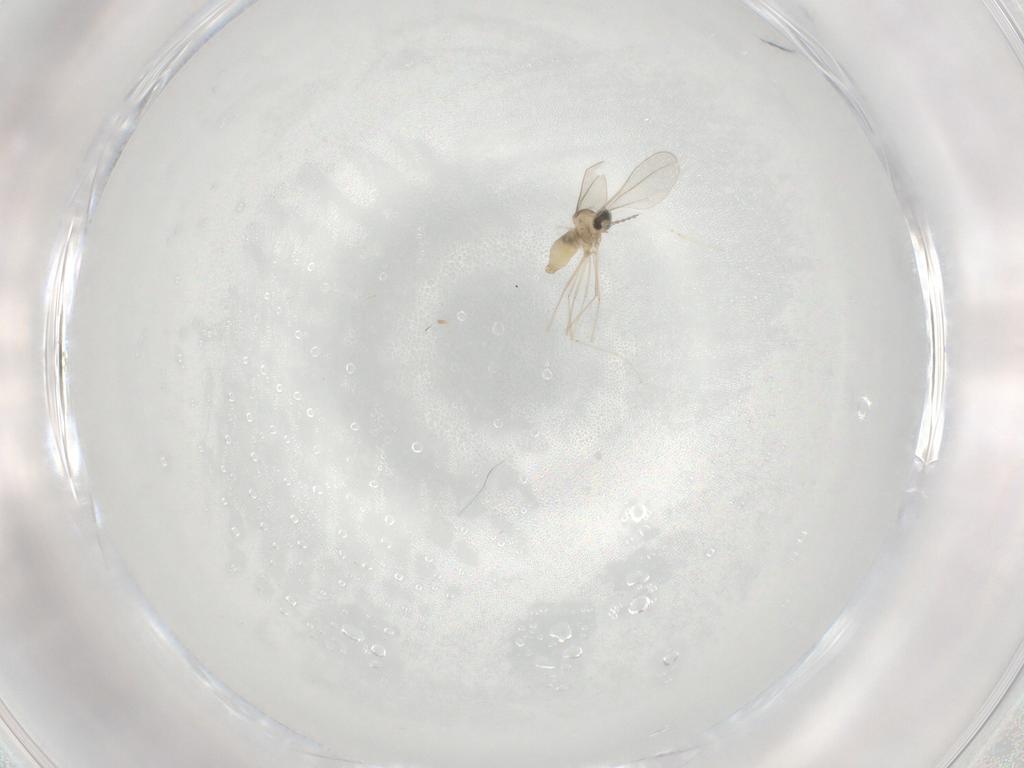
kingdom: Animalia
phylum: Arthropoda
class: Insecta
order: Diptera
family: Cecidomyiidae
